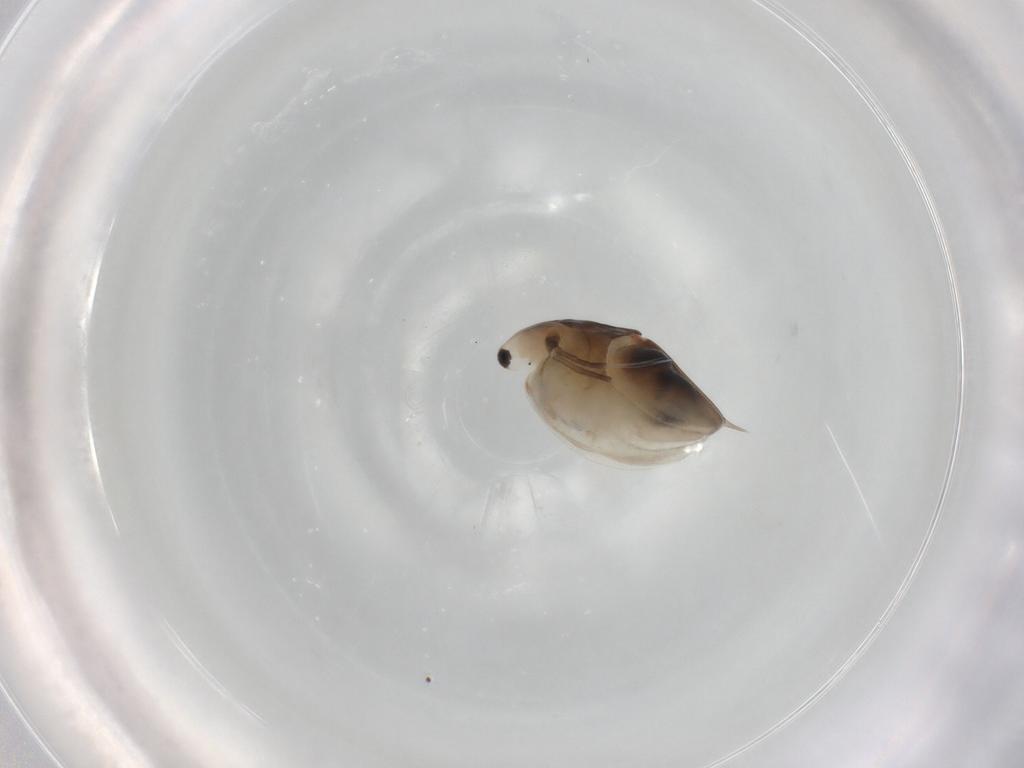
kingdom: Animalia
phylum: Arthropoda
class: Branchiopoda
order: Diplostraca
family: Daphniidae
